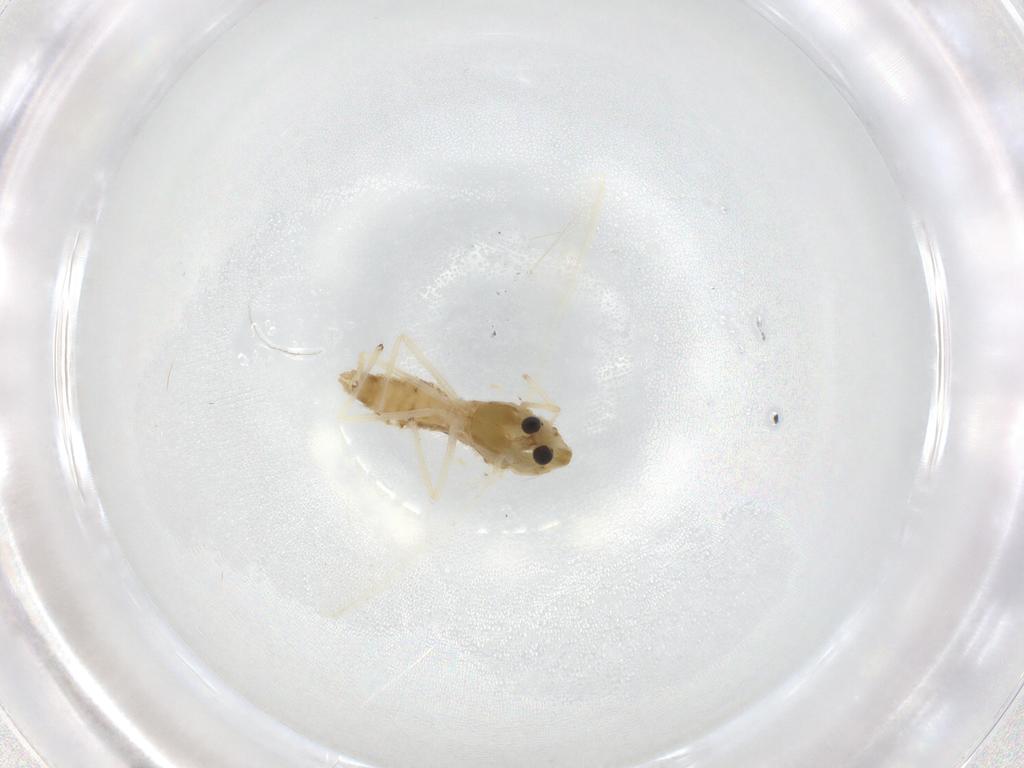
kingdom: Animalia
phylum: Arthropoda
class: Insecta
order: Diptera
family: Chironomidae
